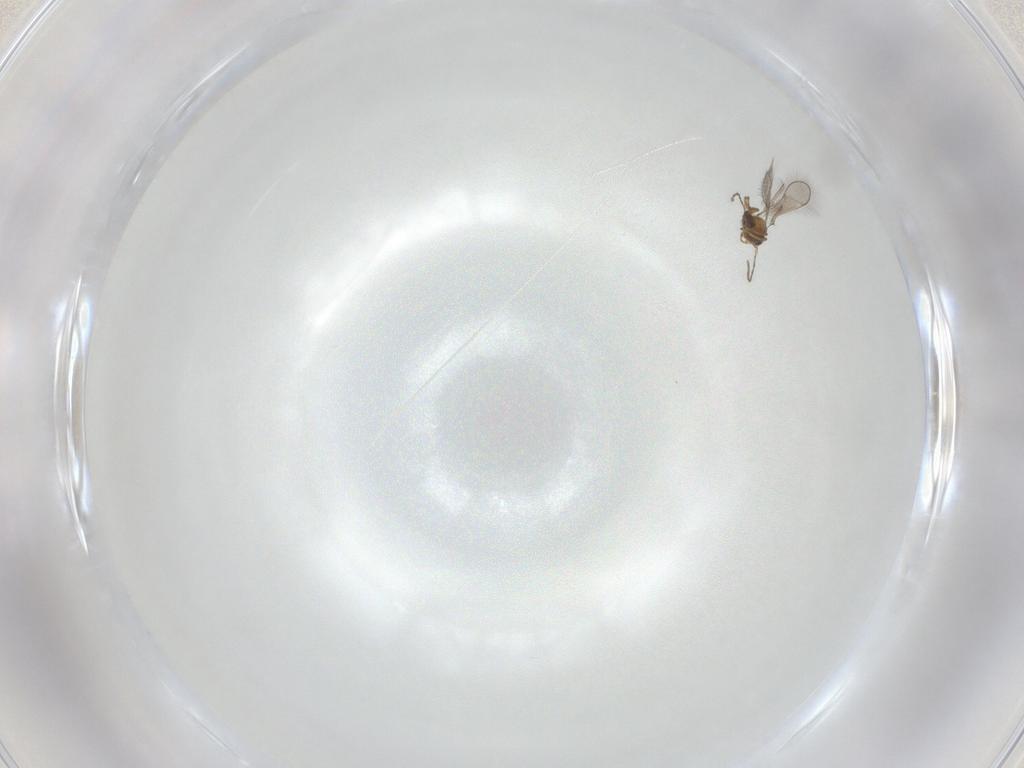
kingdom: Animalia
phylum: Arthropoda
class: Insecta
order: Hymenoptera
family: Mymaridae
